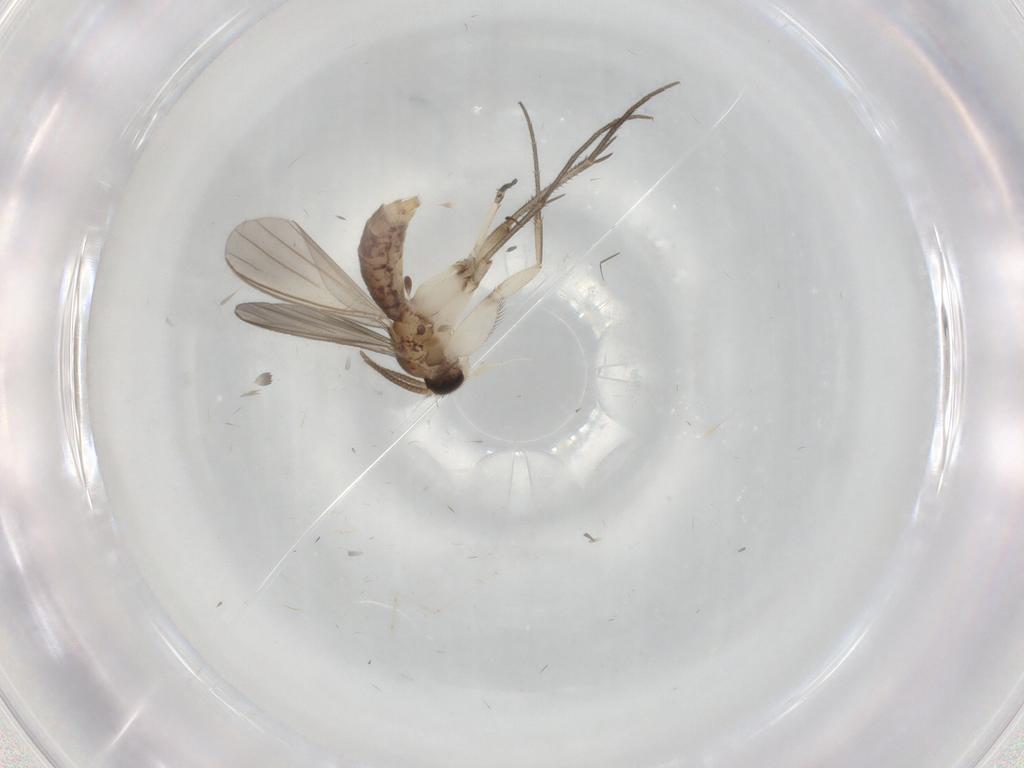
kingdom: Animalia
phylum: Arthropoda
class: Insecta
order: Diptera
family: Mycetophilidae
